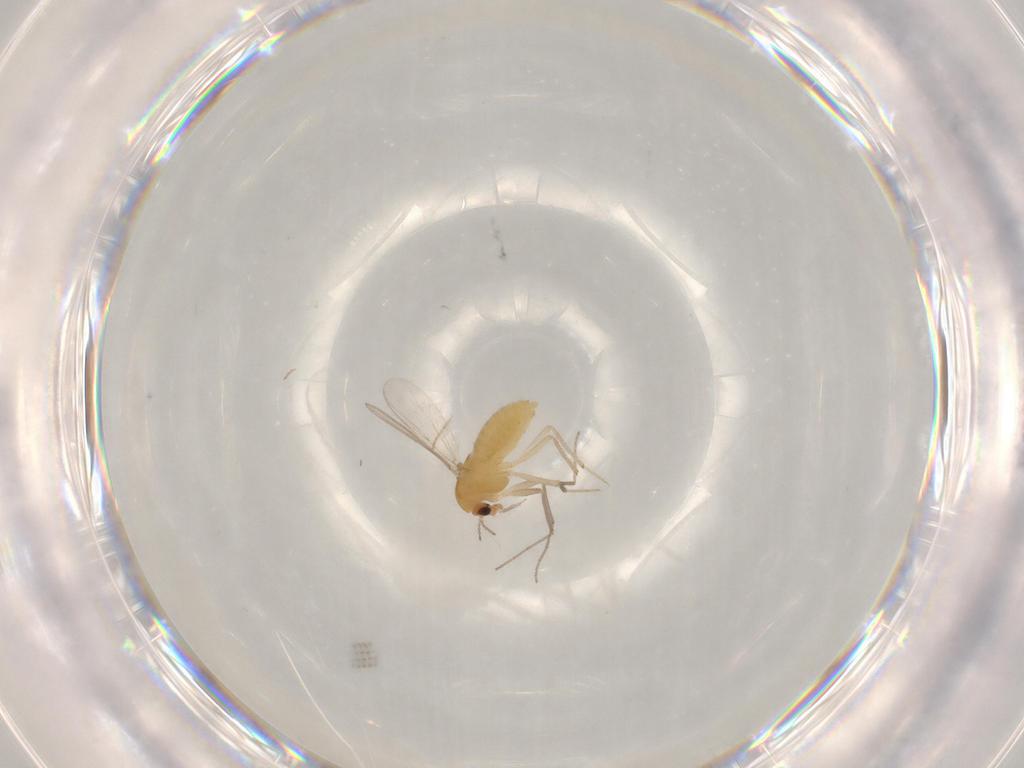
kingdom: Animalia
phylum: Arthropoda
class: Insecta
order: Diptera
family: Chironomidae
